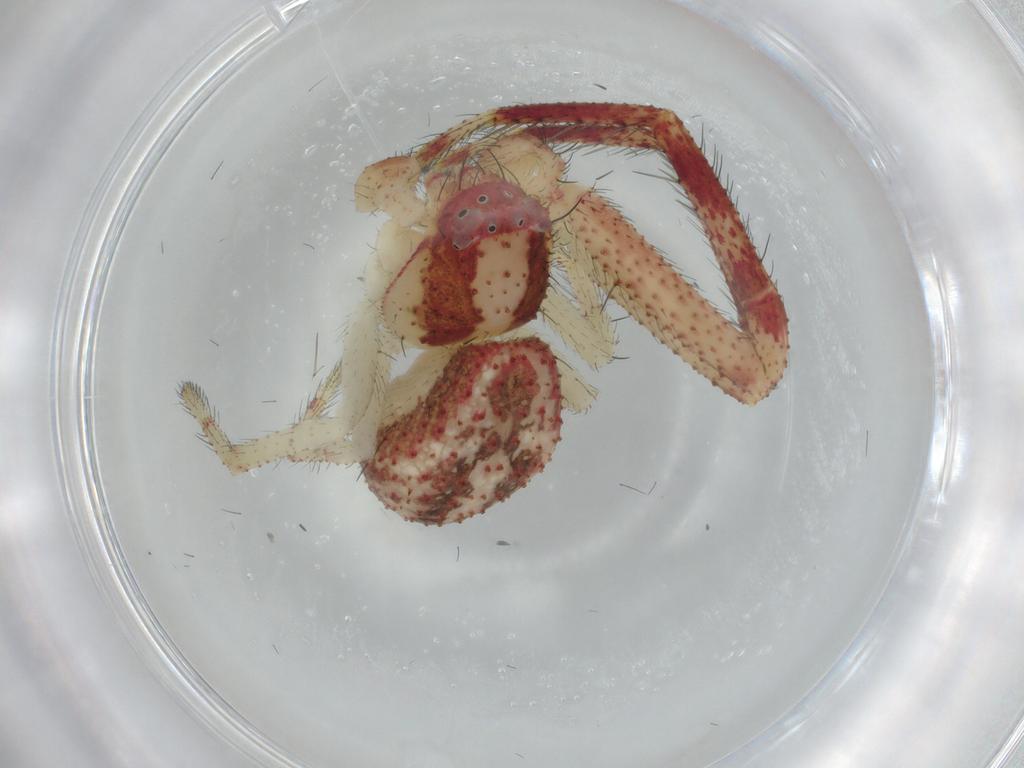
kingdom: Animalia
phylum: Arthropoda
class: Arachnida
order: Araneae
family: Thomisidae
